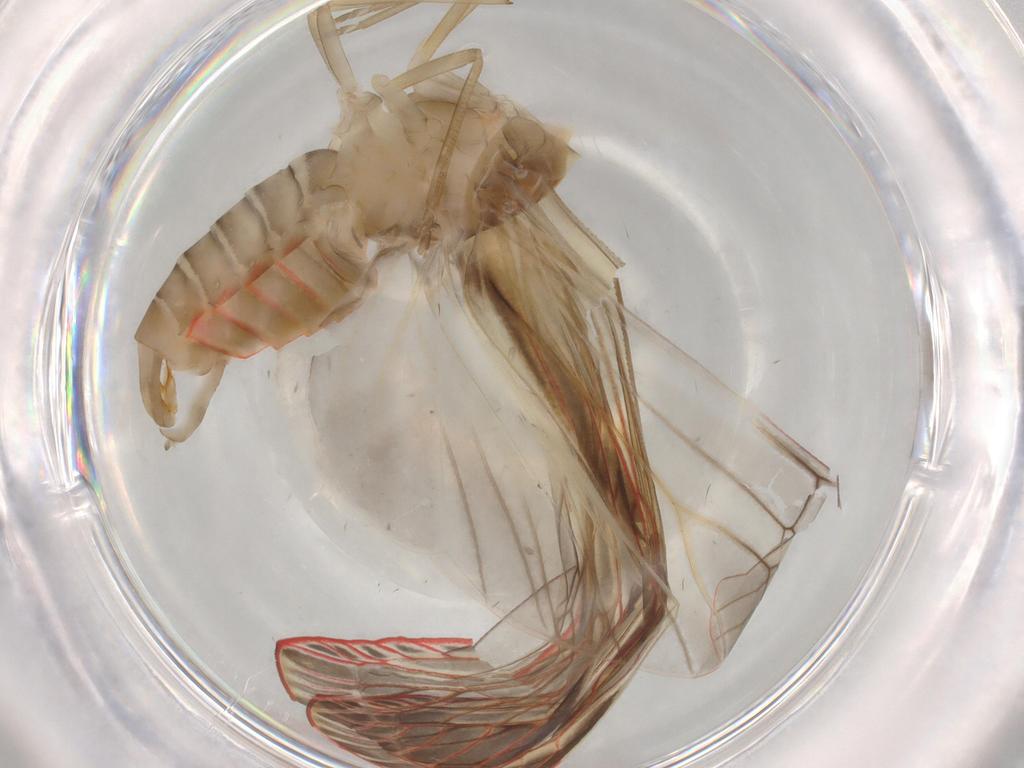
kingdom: Animalia
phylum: Arthropoda
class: Insecta
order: Hemiptera
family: Derbidae
